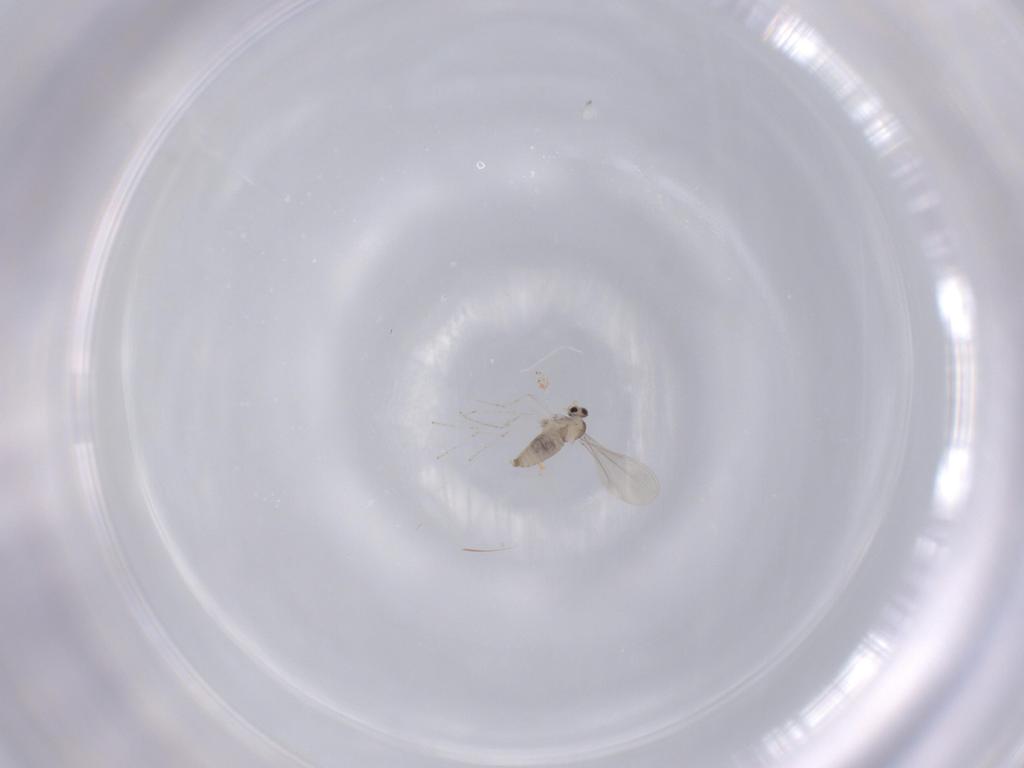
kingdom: Animalia
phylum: Arthropoda
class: Insecta
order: Diptera
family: Cecidomyiidae
